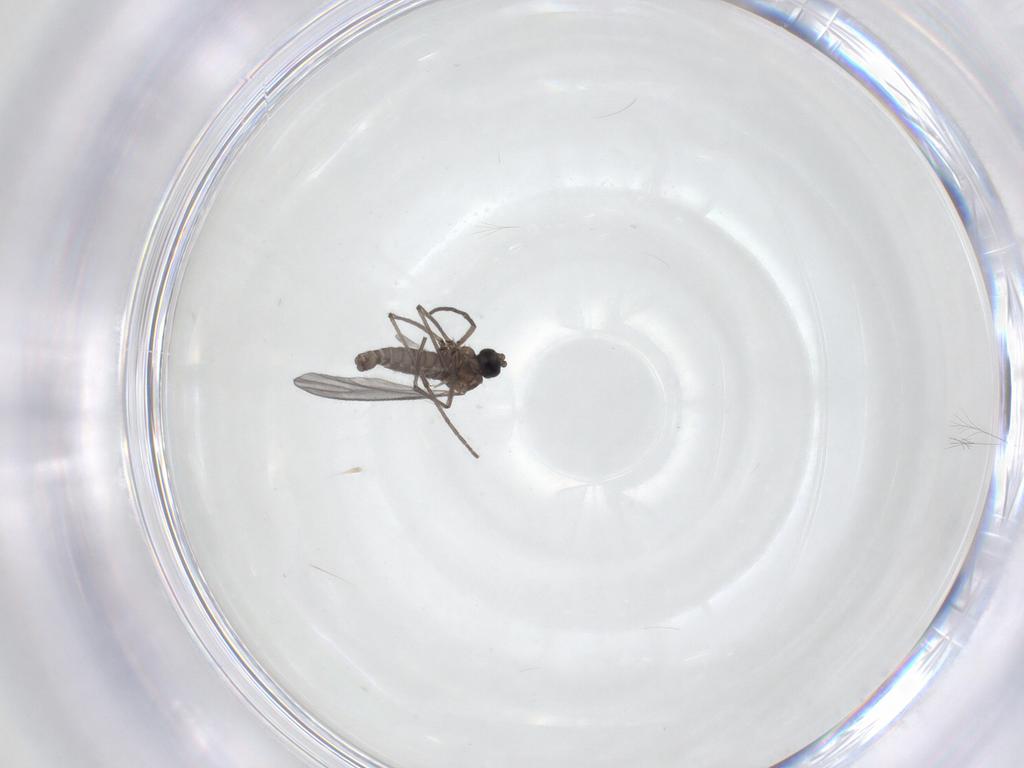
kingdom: Animalia
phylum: Arthropoda
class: Insecta
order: Diptera
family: Sciaridae
